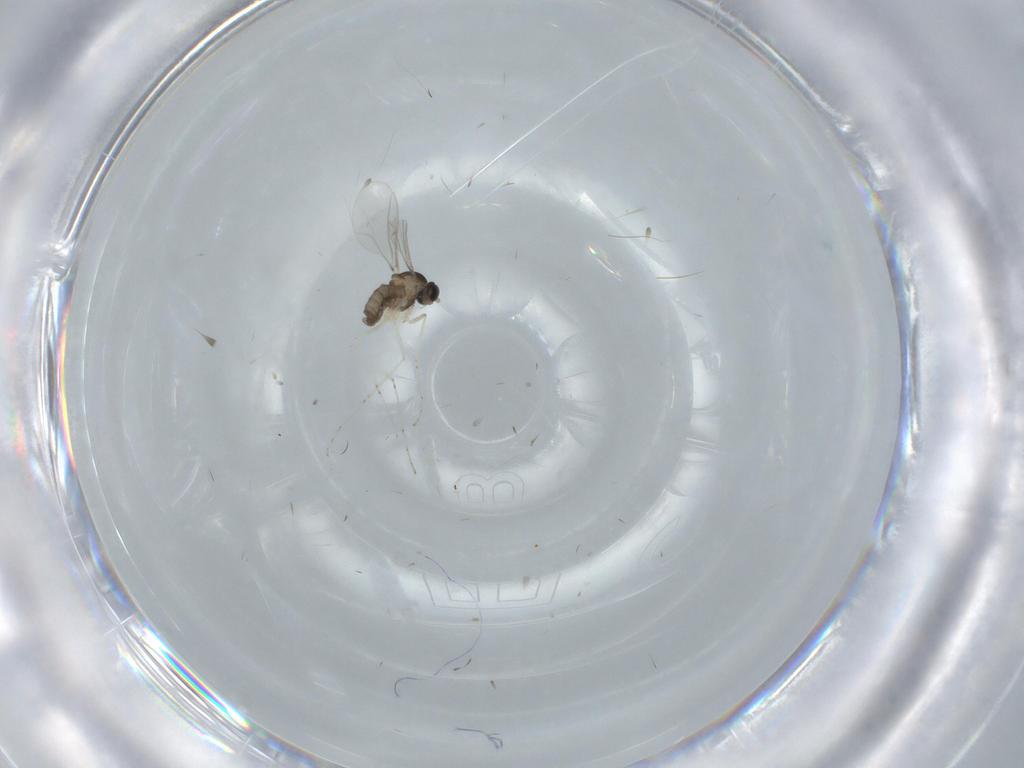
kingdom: Animalia
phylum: Arthropoda
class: Insecta
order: Diptera
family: Cecidomyiidae
